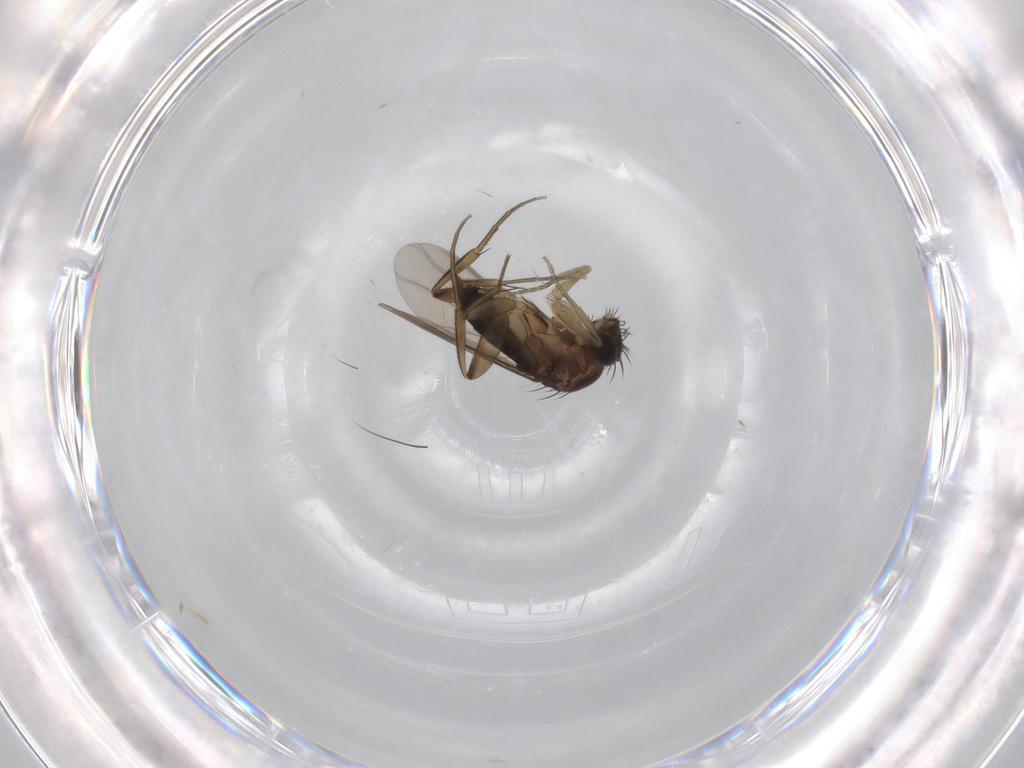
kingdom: Animalia
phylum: Arthropoda
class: Insecta
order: Diptera
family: Phoridae
